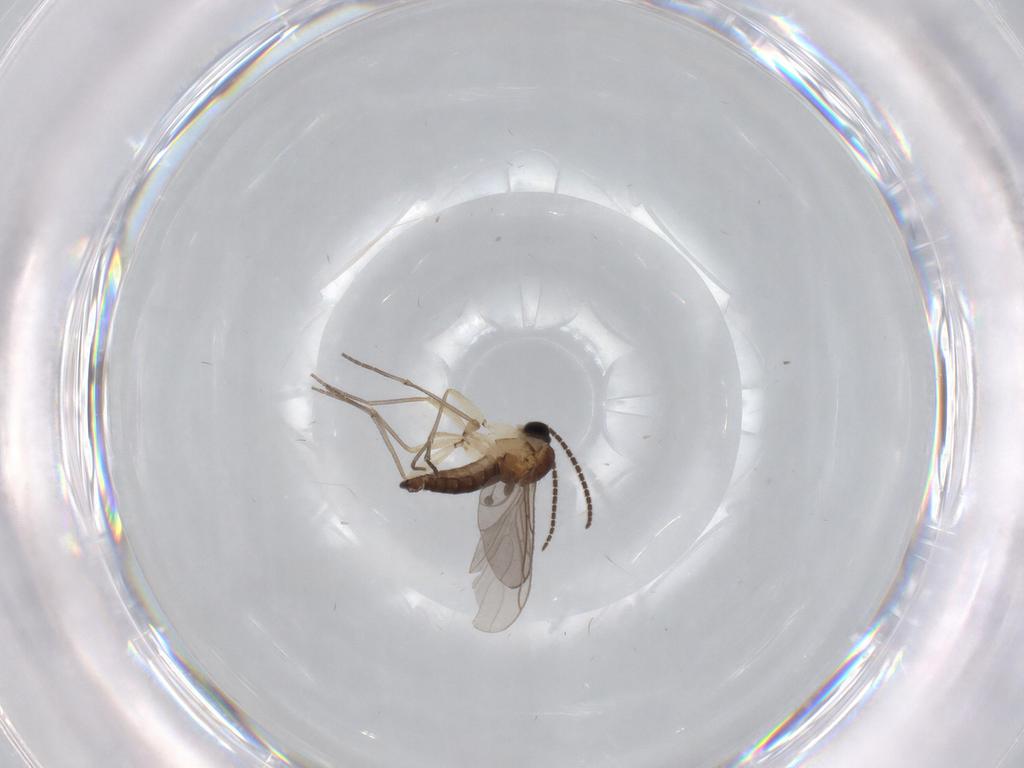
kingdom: Animalia
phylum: Arthropoda
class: Insecta
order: Diptera
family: Sciaridae
